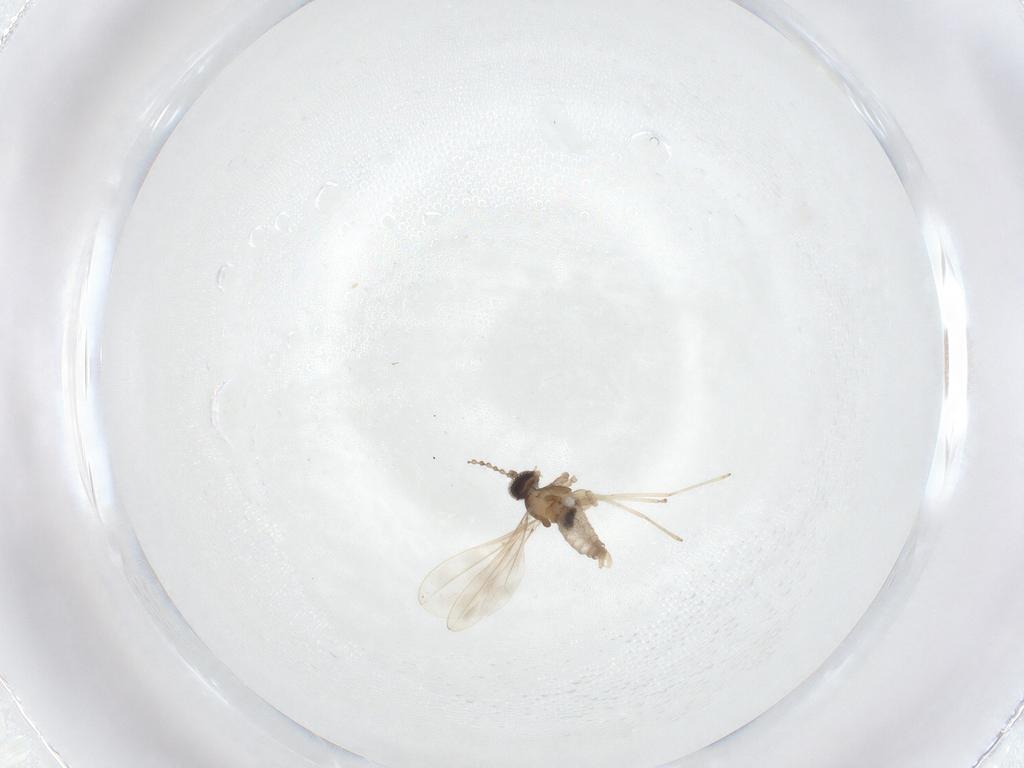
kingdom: Animalia
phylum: Arthropoda
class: Insecta
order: Diptera
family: Cecidomyiidae
